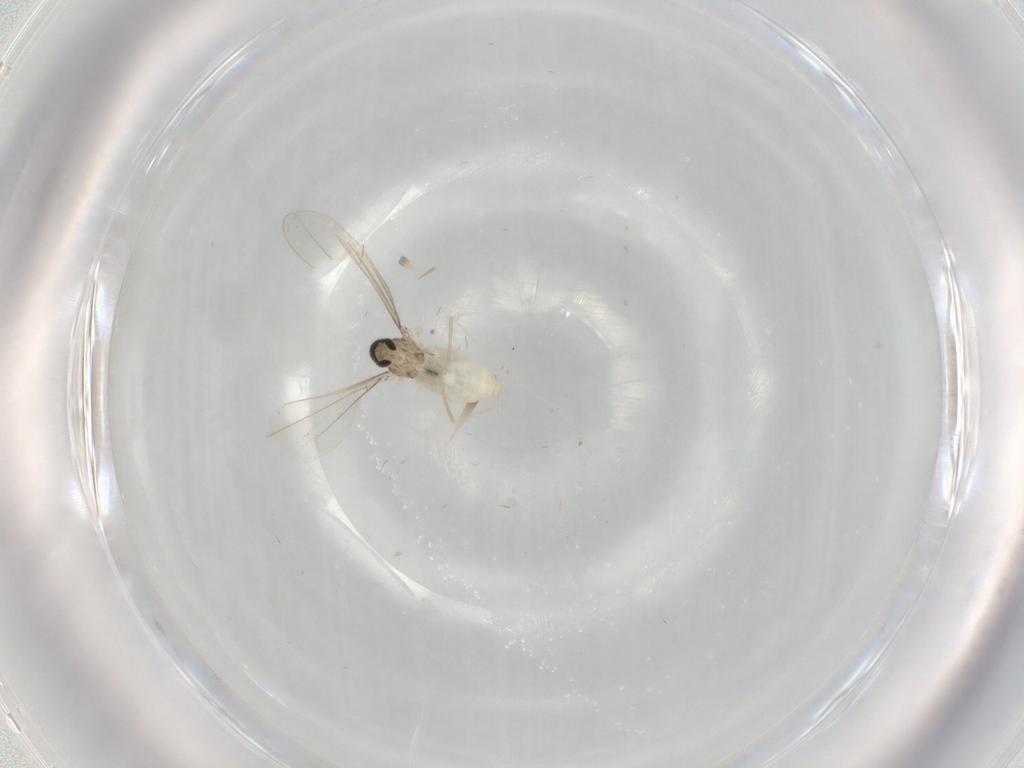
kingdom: Animalia
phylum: Arthropoda
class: Insecta
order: Diptera
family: Cecidomyiidae
